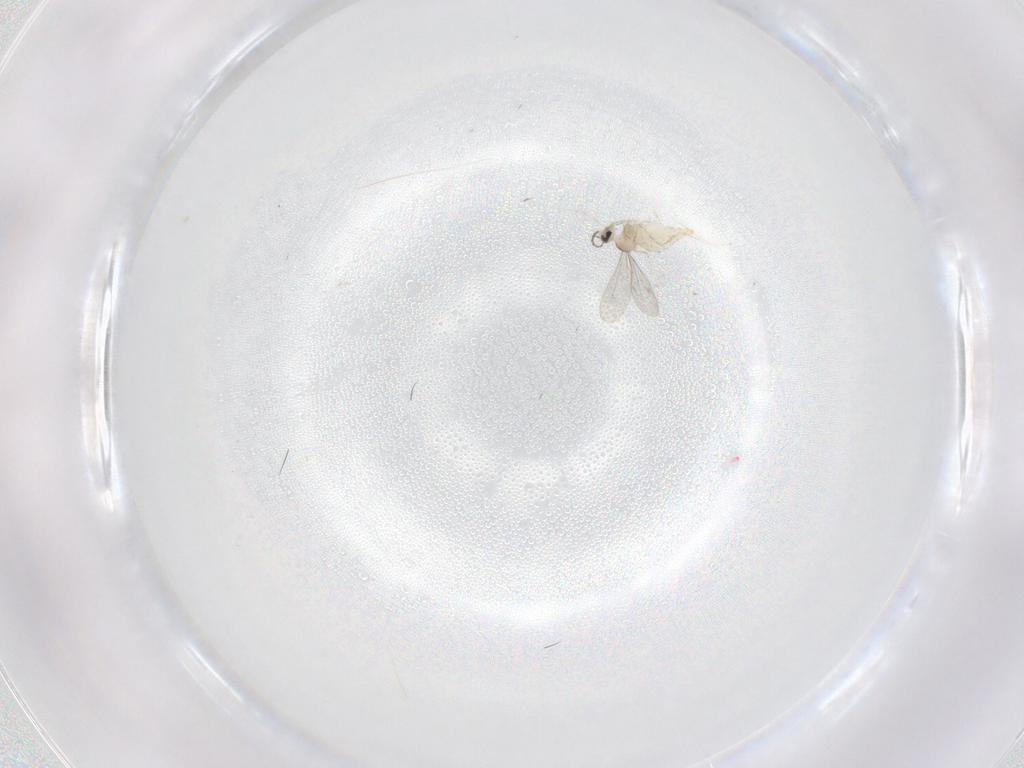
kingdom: Animalia
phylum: Arthropoda
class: Insecta
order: Diptera
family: Cecidomyiidae
